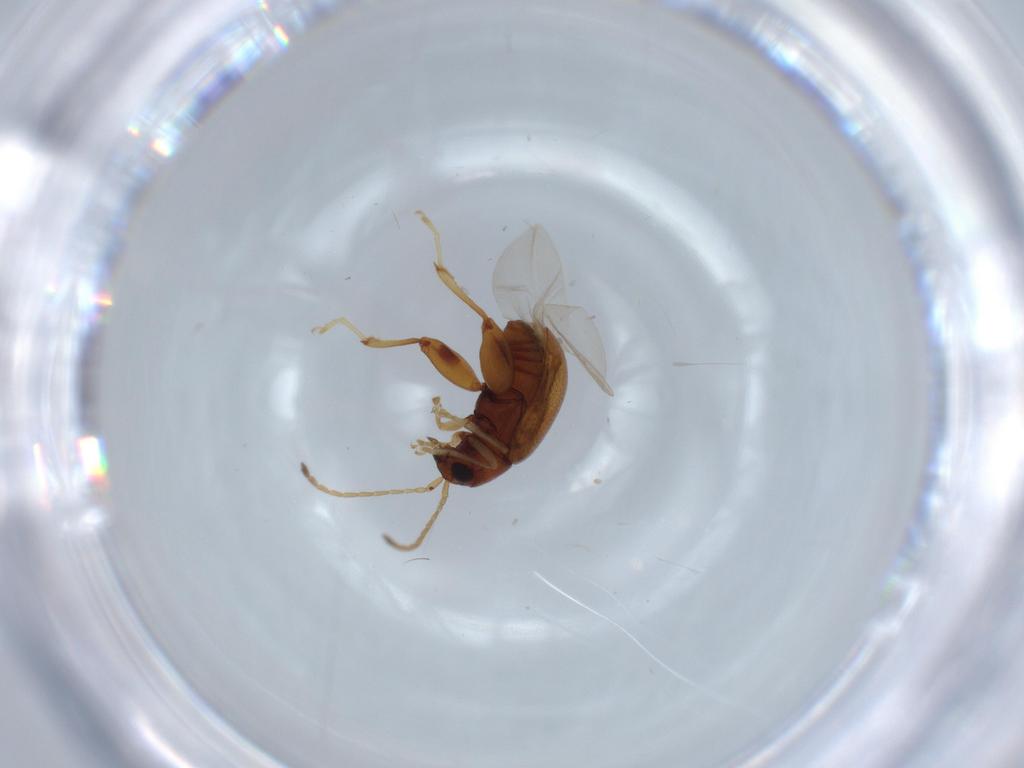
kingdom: Animalia
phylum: Arthropoda
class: Insecta
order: Coleoptera
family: Chrysomelidae
